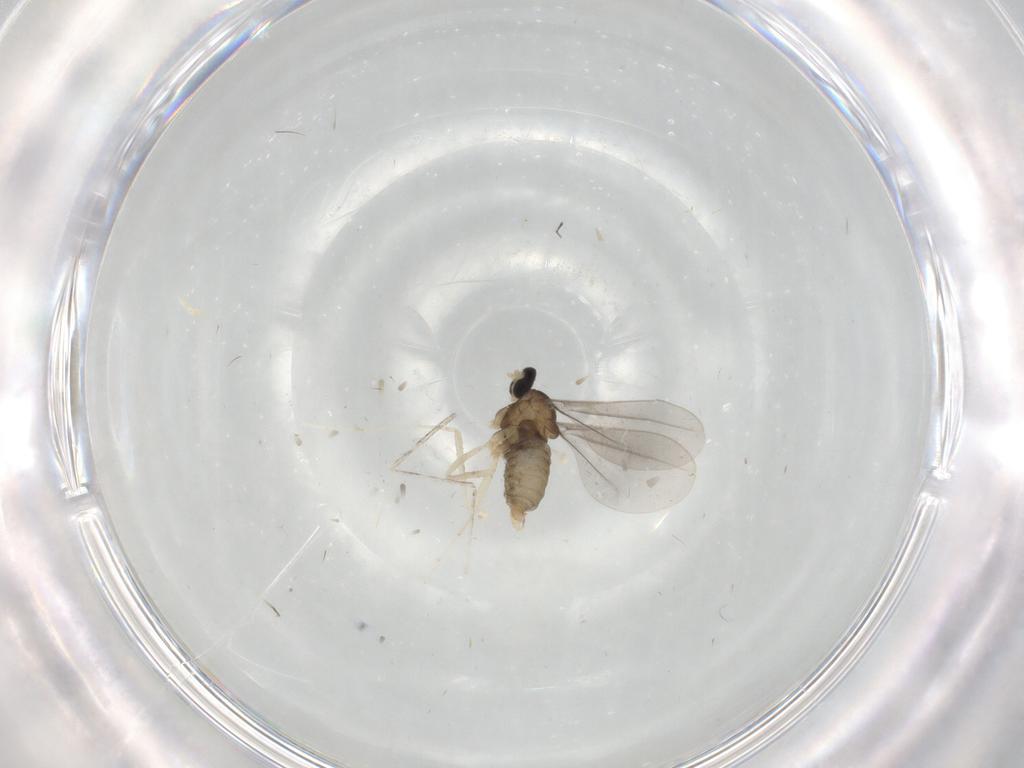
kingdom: Animalia
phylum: Arthropoda
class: Insecta
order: Diptera
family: Cecidomyiidae
